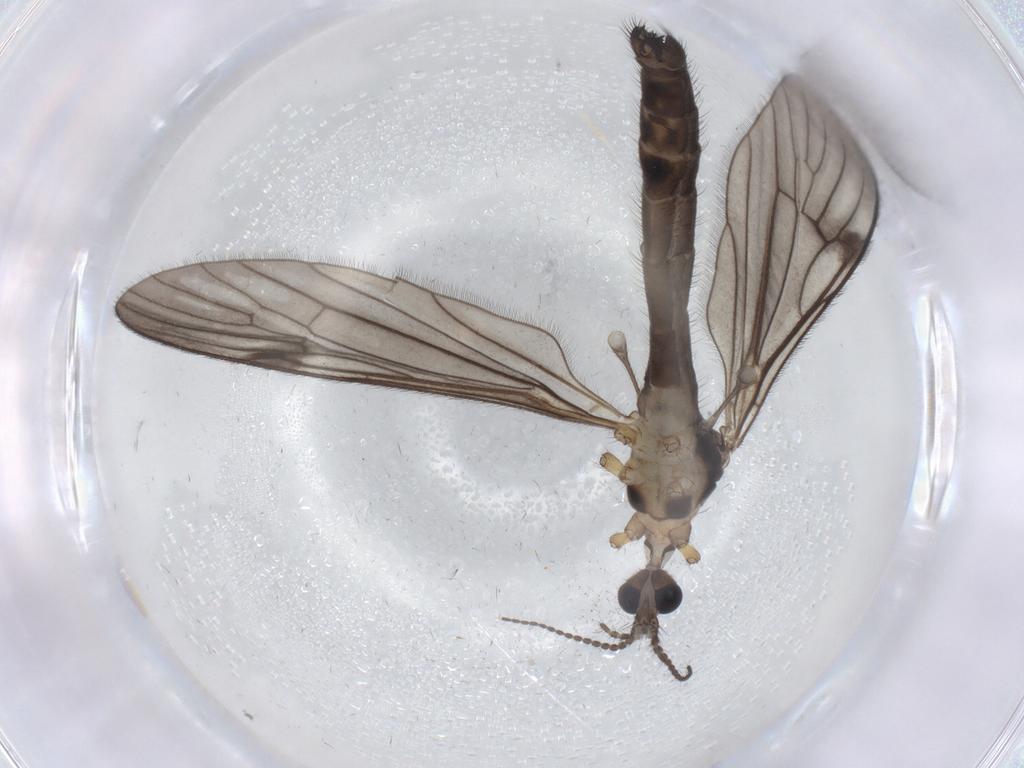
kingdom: Animalia
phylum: Arthropoda
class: Insecta
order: Diptera
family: Limoniidae
